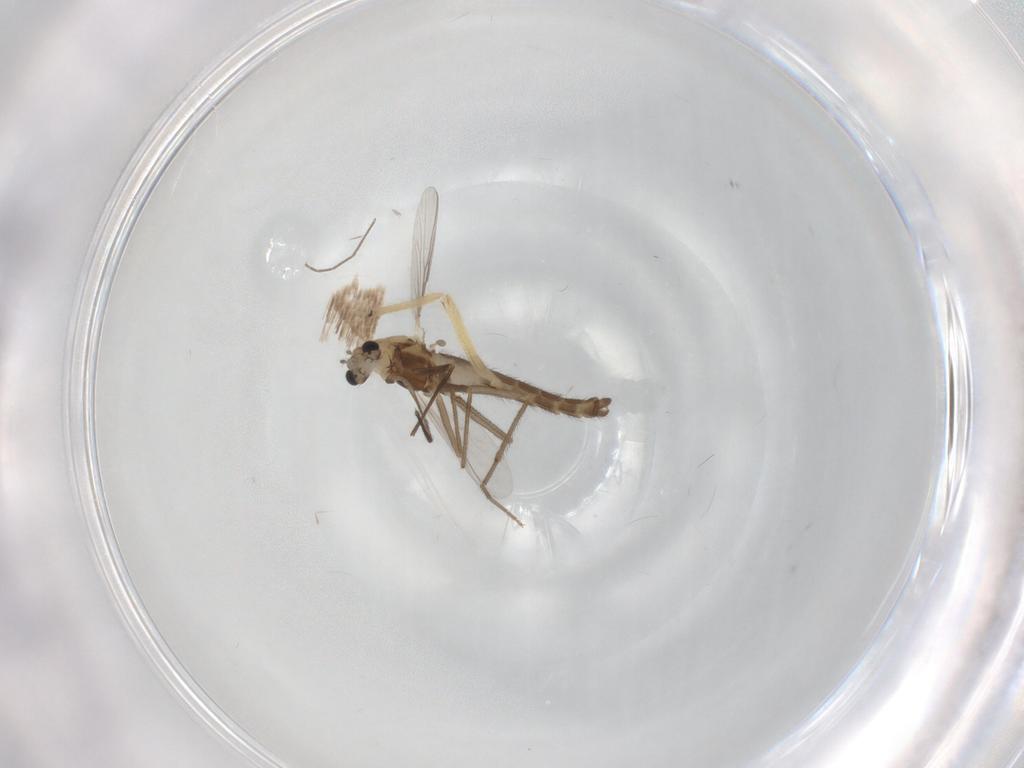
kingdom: Animalia
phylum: Arthropoda
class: Insecta
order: Diptera
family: Chironomidae
